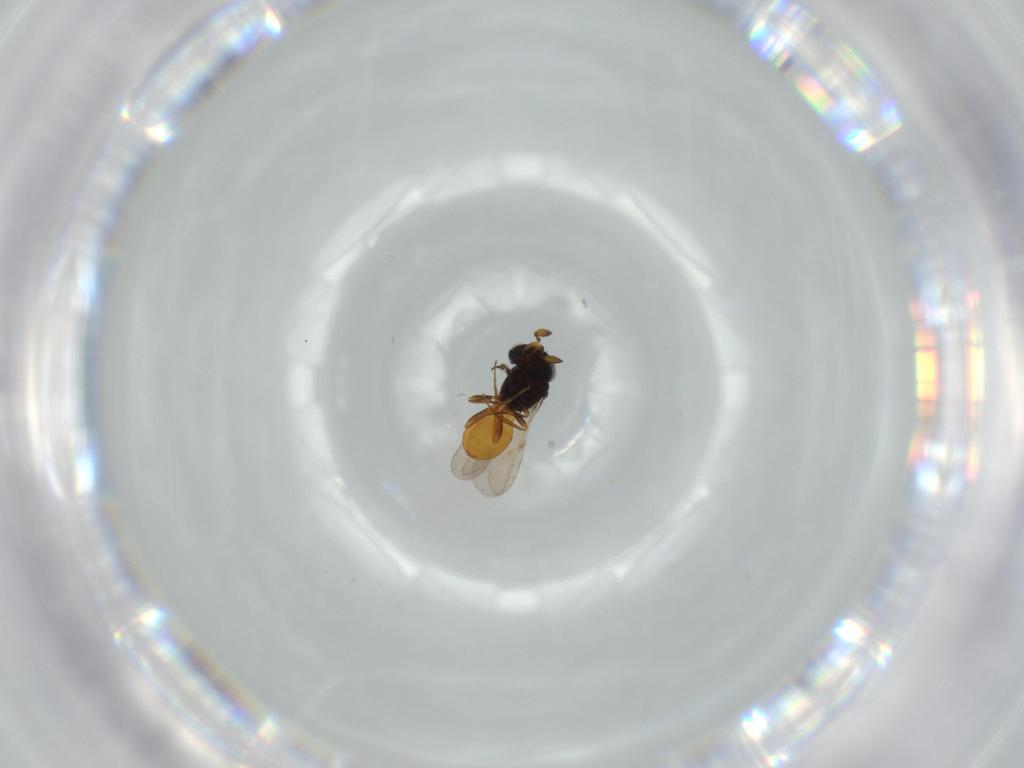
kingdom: Animalia
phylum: Arthropoda
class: Insecta
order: Hymenoptera
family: Scelionidae
